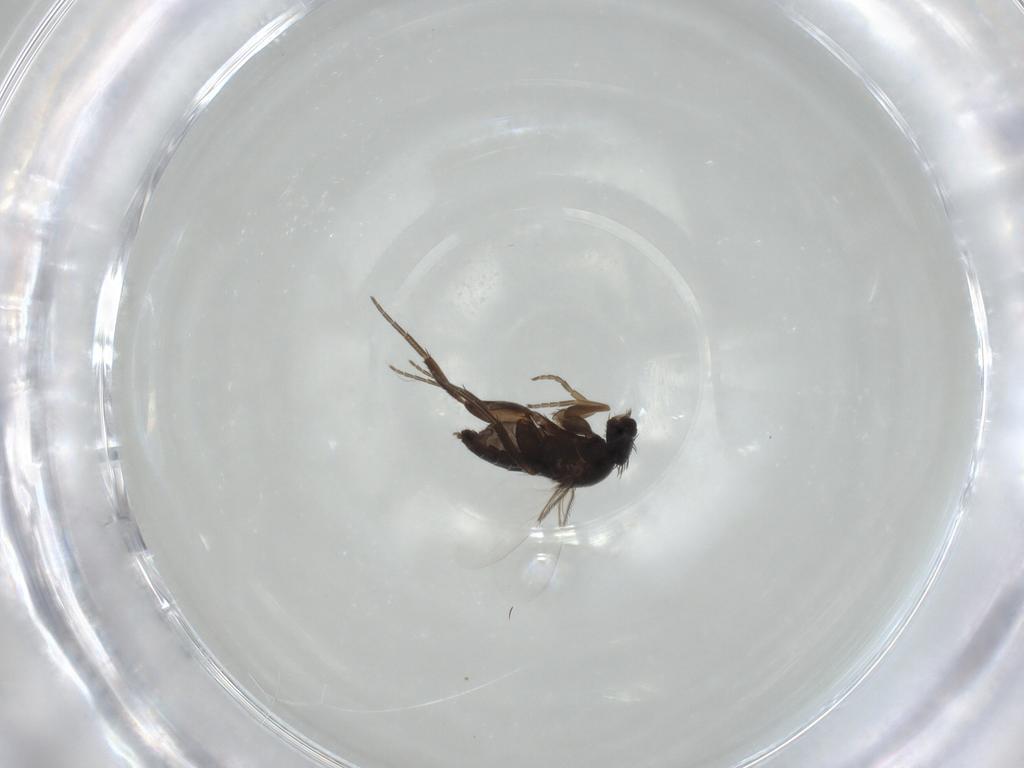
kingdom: Animalia
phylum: Arthropoda
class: Insecta
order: Diptera
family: Phoridae
